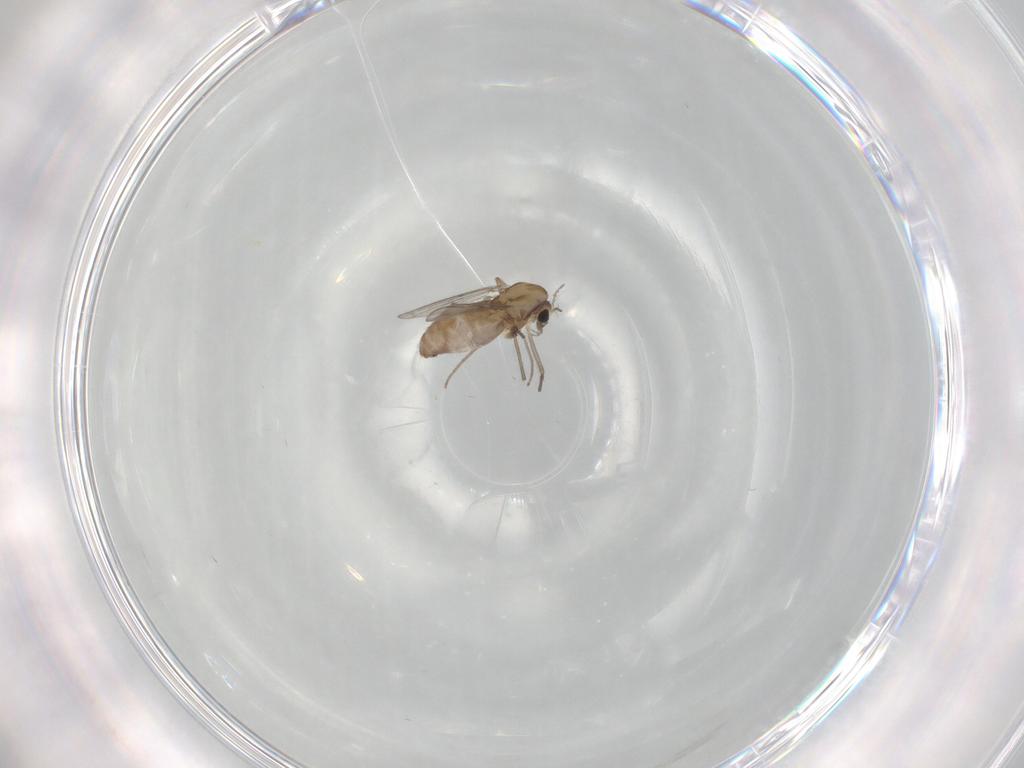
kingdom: Animalia
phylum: Arthropoda
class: Insecta
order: Diptera
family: Chironomidae
